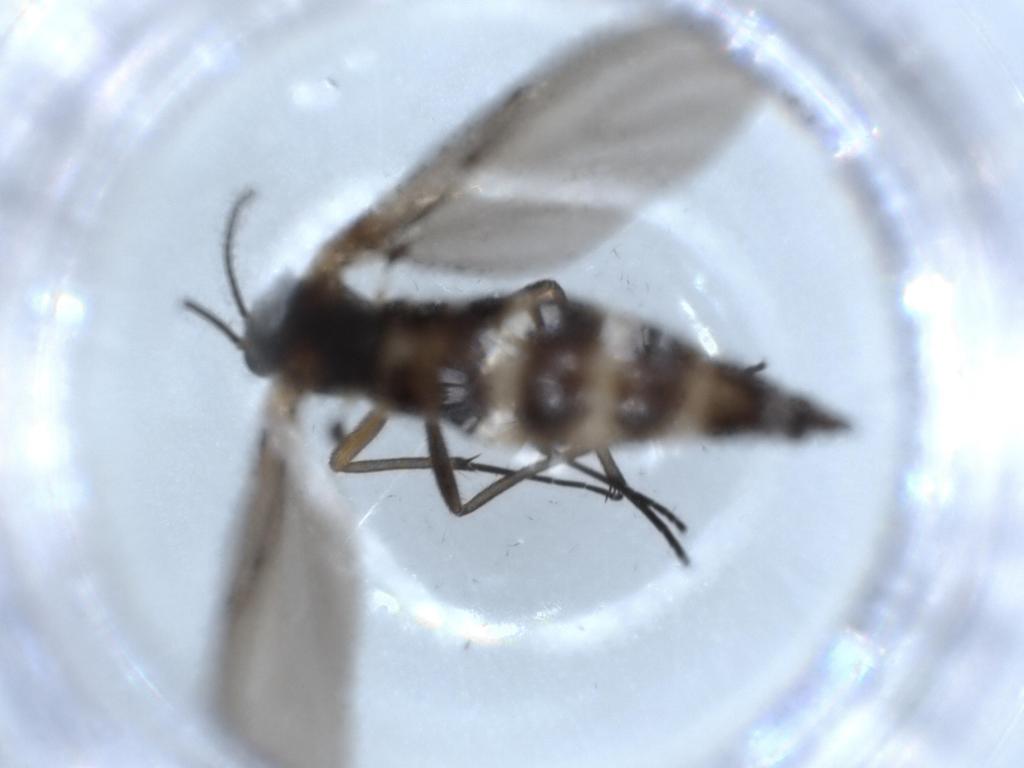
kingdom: Animalia
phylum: Arthropoda
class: Insecta
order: Diptera
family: Sciaridae
